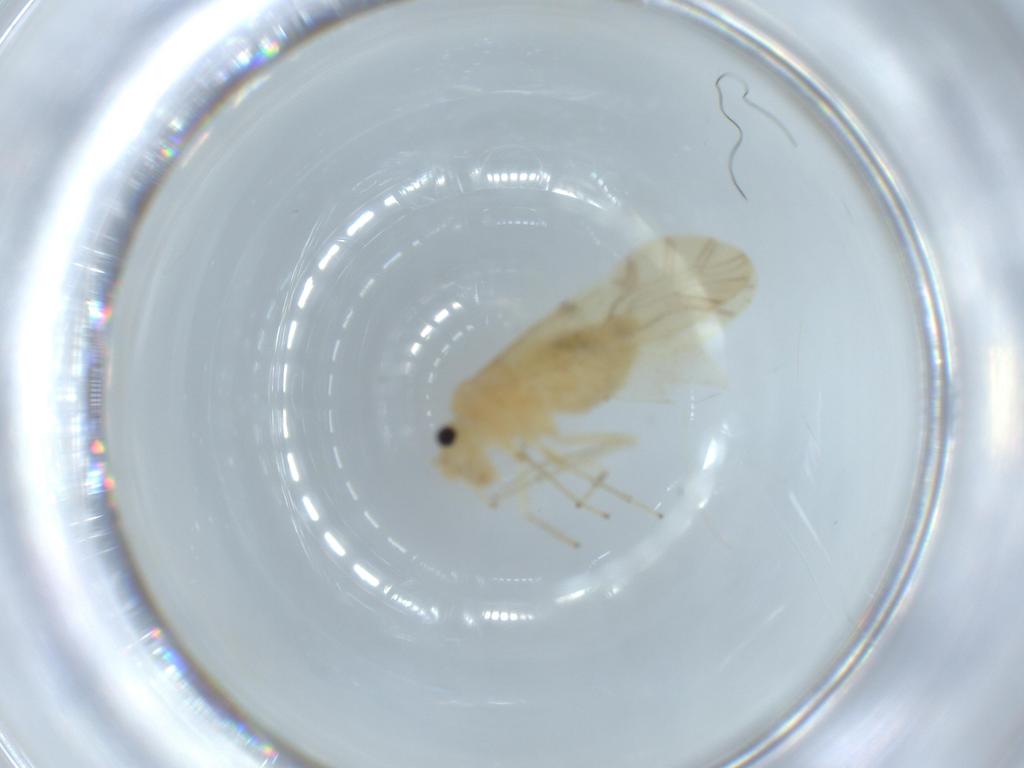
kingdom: Animalia
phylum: Arthropoda
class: Insecta
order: Psocodea
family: Caeciliusidae
